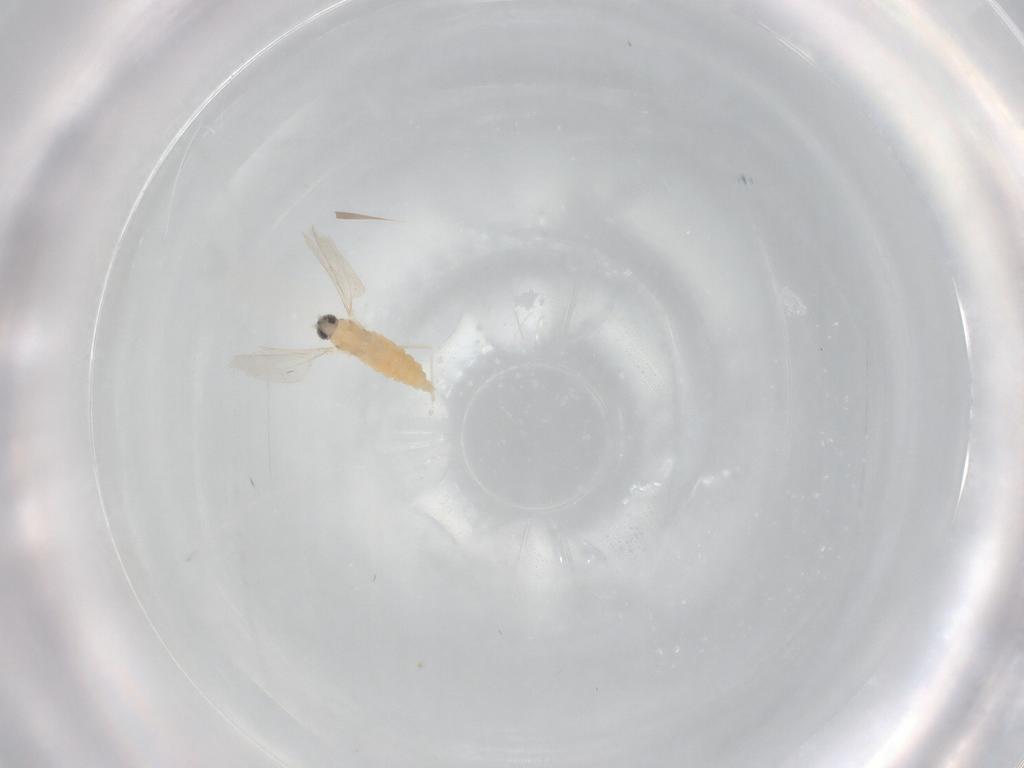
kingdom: Animalia
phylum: Arthropoda
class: Insecta
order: Diptera
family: Cecidomyiidae
